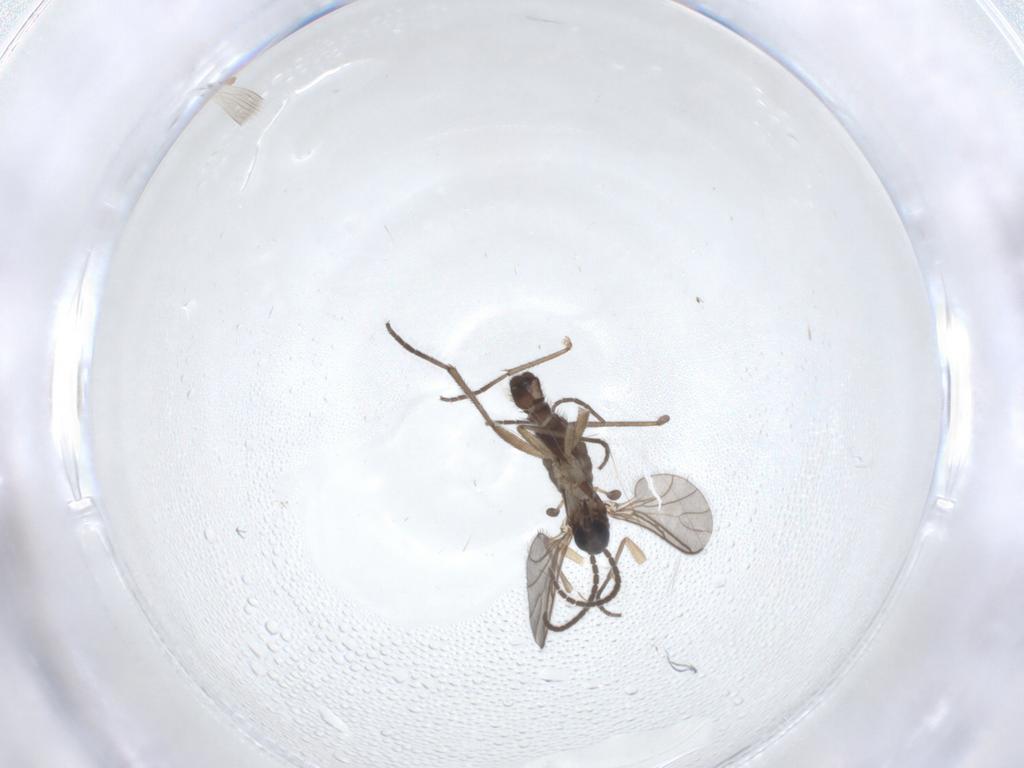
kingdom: Animalia
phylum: Arthropoda
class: Insecta
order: Diptera
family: Sciaridae
